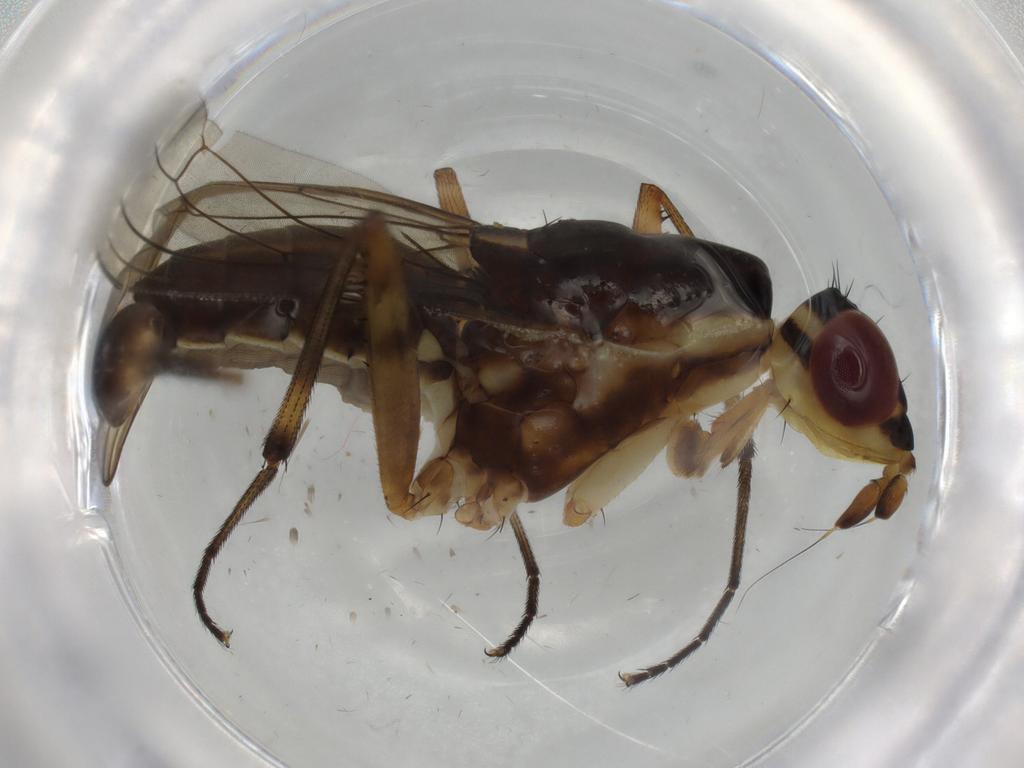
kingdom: Animalia
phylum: Arthropoda
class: Insecta
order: Diptera
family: Neriidae
